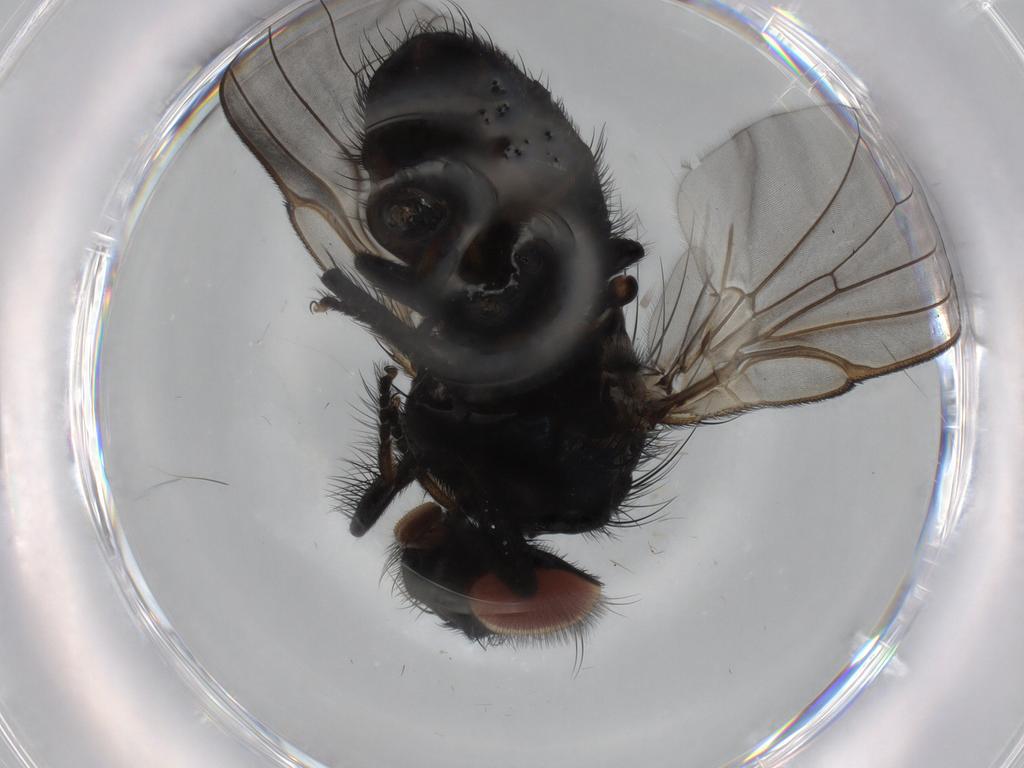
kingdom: Animalia
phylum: Arthropoda
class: Insecta
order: Diptera
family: Lonchaeidae
